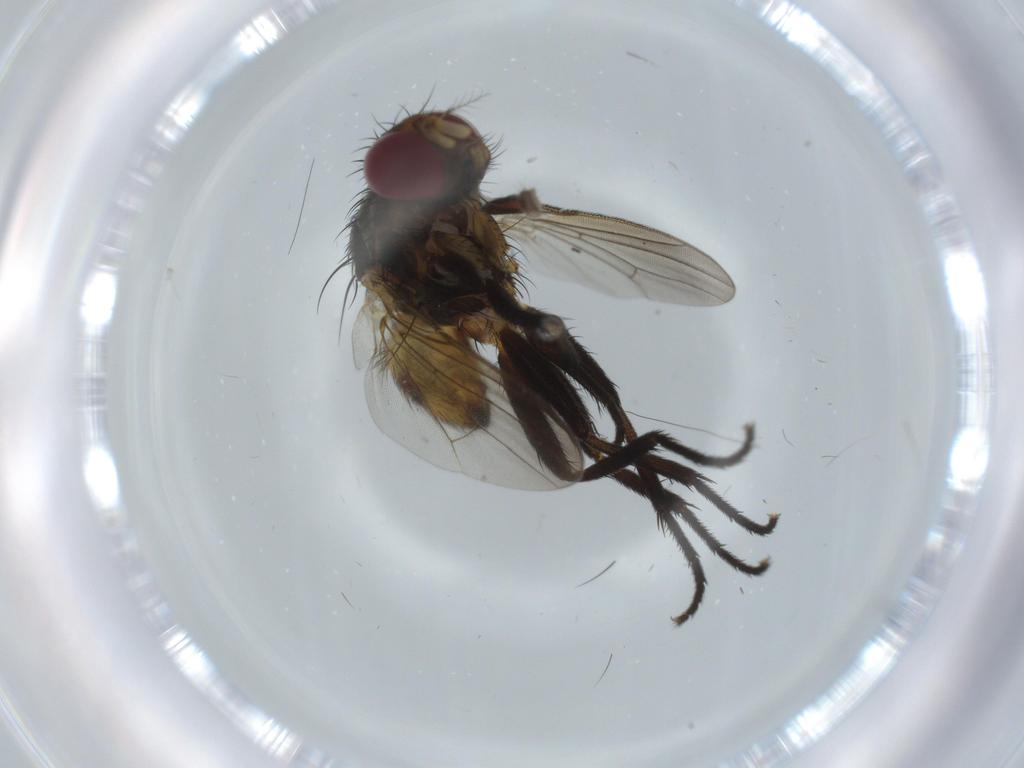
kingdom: Animalia
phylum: Arthropoda
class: Insecta
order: Diptera
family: Anthomyiidae
